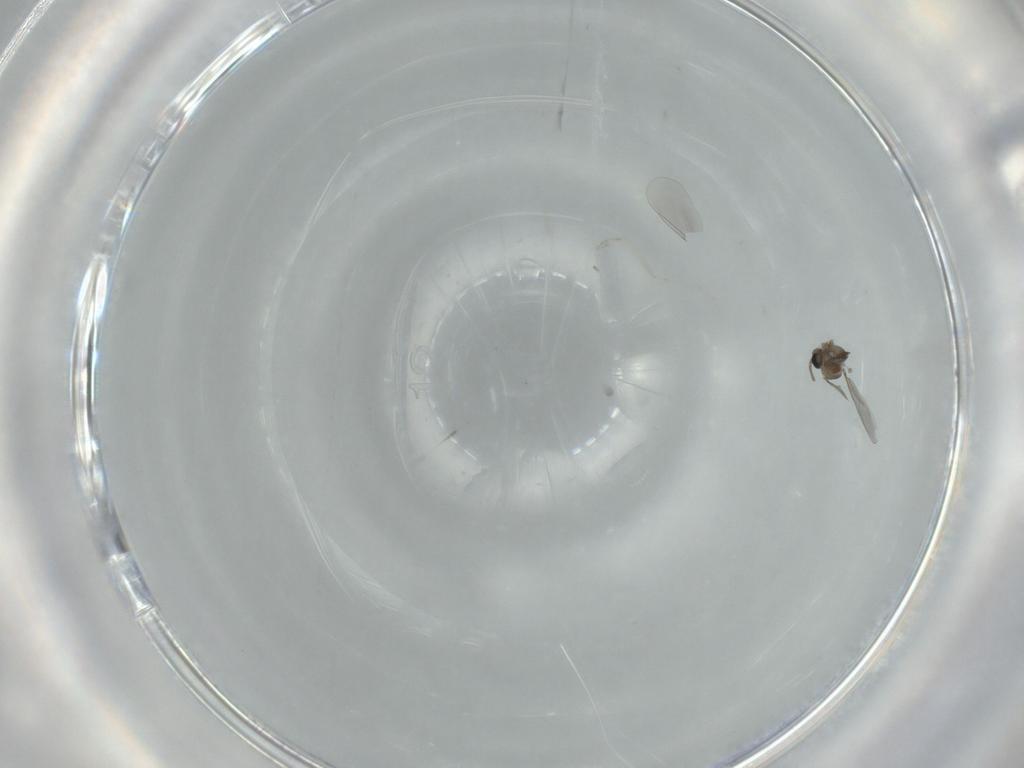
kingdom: Animalia
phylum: Arthropoda
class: Insecta
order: Diptera
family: Cecidomyiidae
